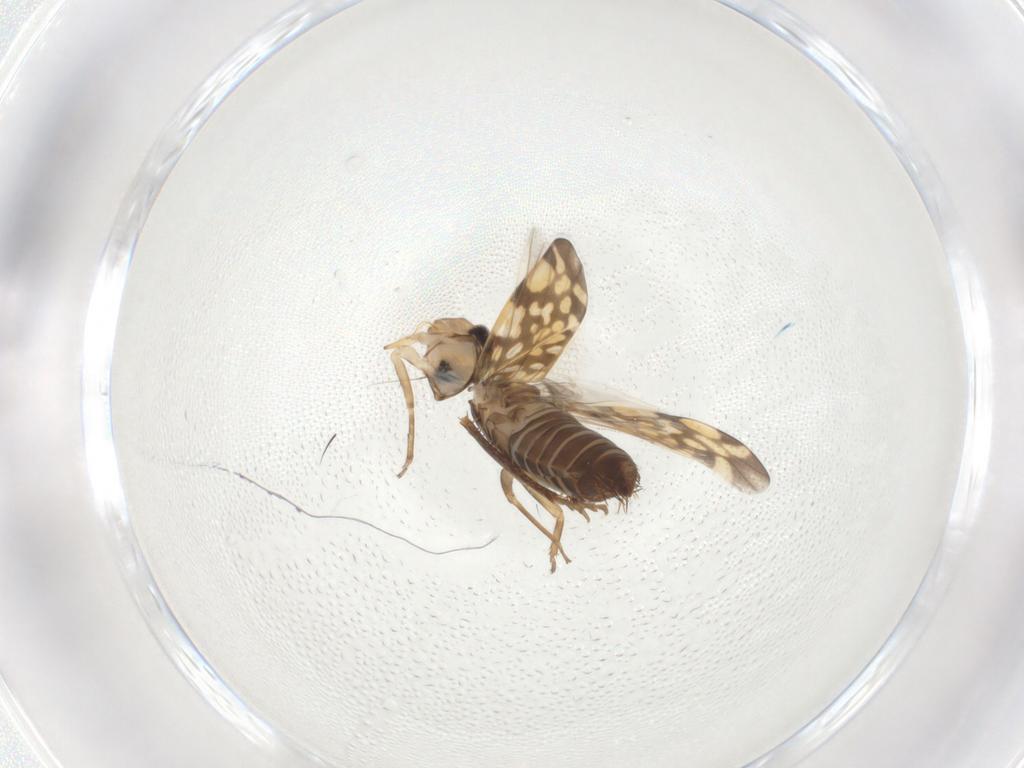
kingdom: Animalia
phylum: Arthropoda
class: Insecta
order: Hemiptera
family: Cicadellidae
